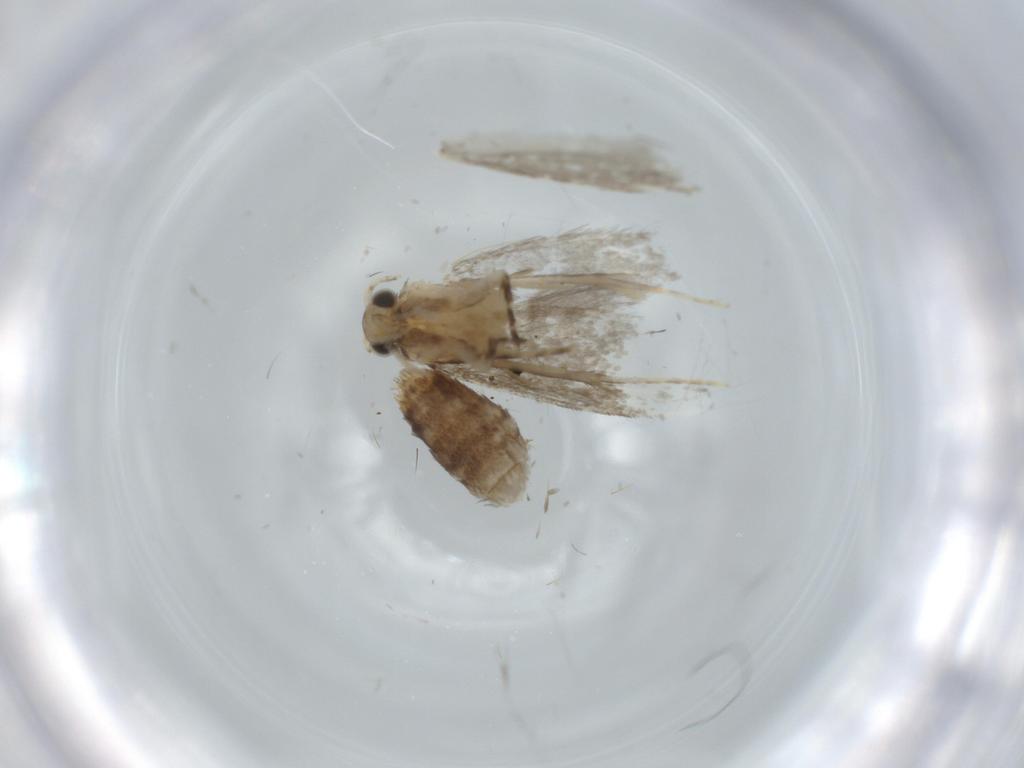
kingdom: Animalia
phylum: Arthropoda
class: Insecta
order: Lepidoptera
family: Tineidae
